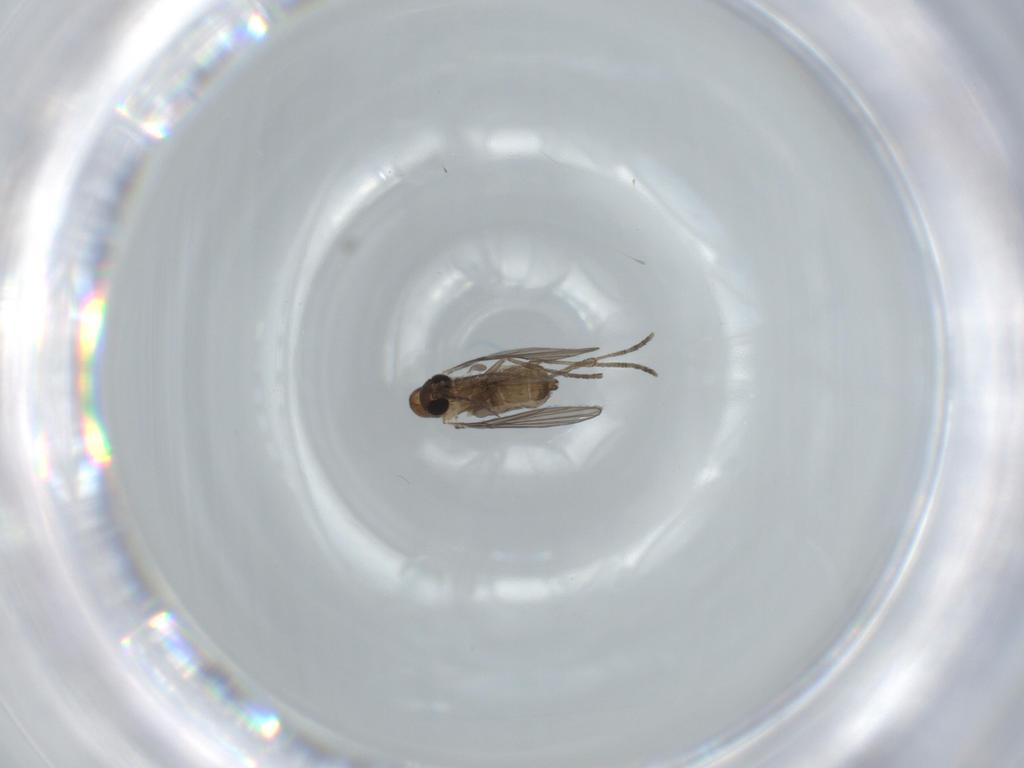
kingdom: Animalia
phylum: Arthropoda
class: Insecta
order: Diptera
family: Psychodidae
